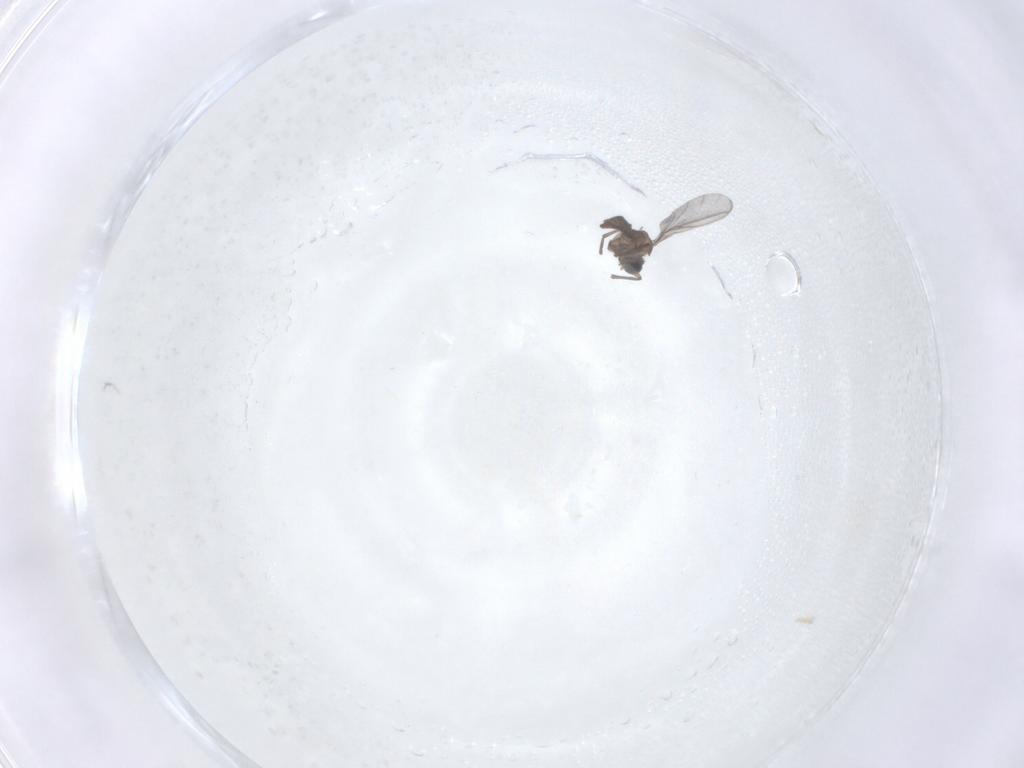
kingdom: Animalia
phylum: Arthropoda
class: Insecta
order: Diptera
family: Sciaridae
